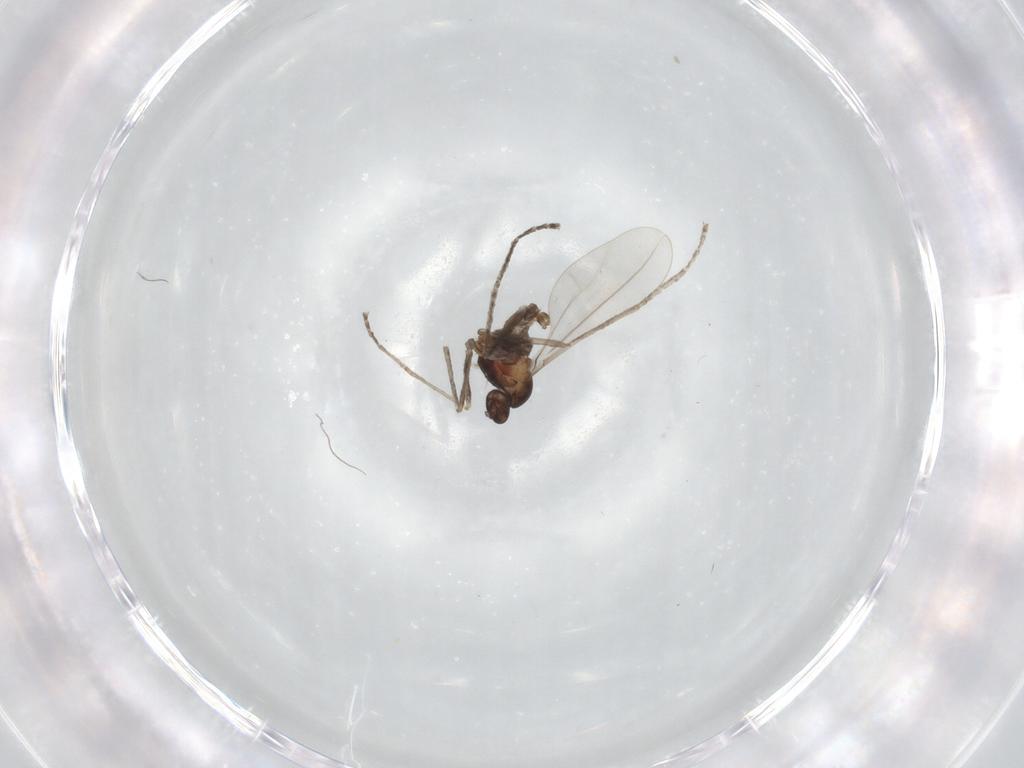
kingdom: Animalia
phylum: Arthropoda
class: Insecta
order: Diptera
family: Cecidomyiidae
